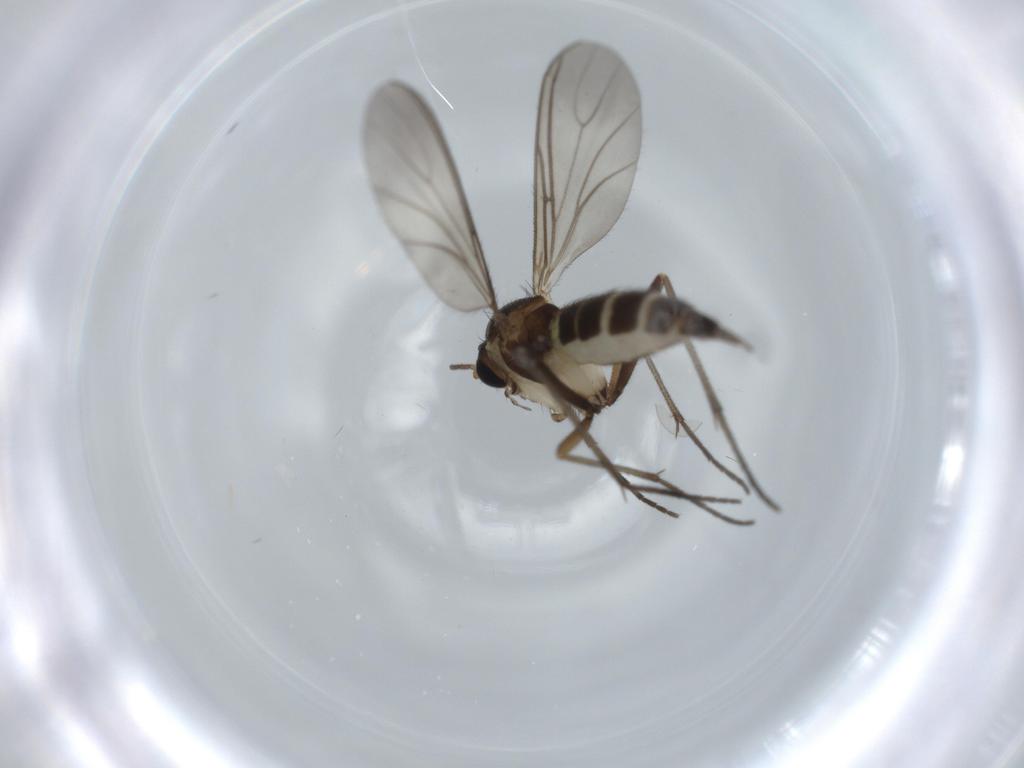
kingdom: Animalia
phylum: Arthropoda
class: Insecta
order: Diptera
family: Sciaridae
